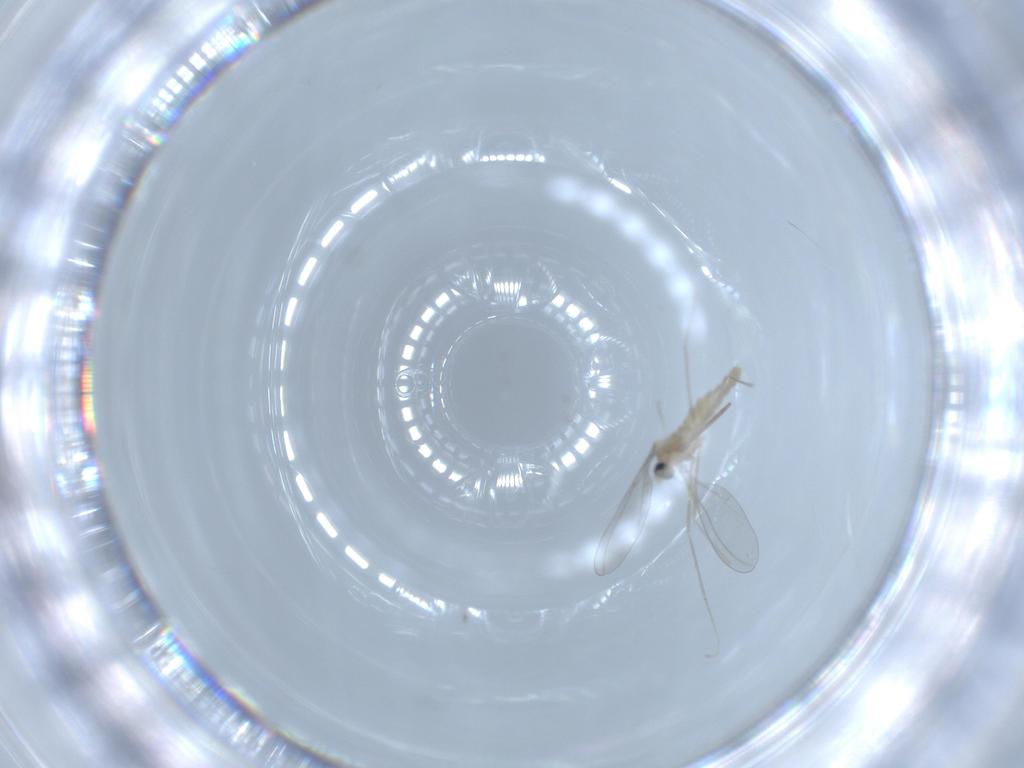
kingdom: Animalia
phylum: Arthropoda
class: Insecta
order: Diptera
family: Cecidomyiidae
